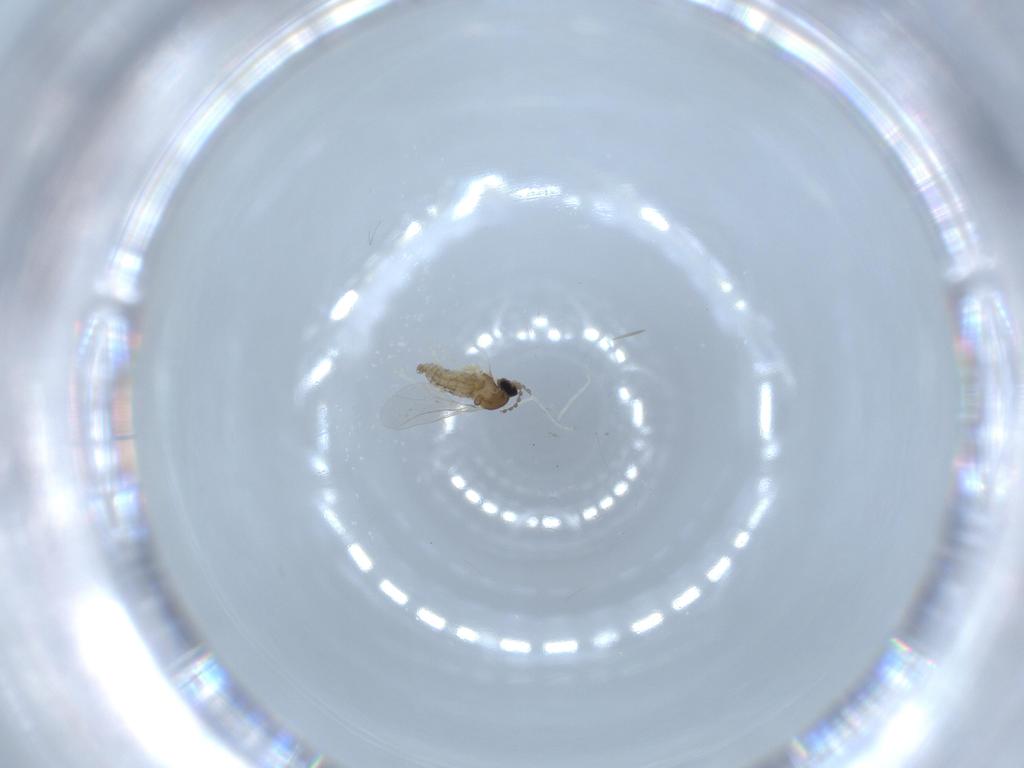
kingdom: Animalia
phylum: Arthropoda
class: Insecta
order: Diptera
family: Cecidomyiidae
